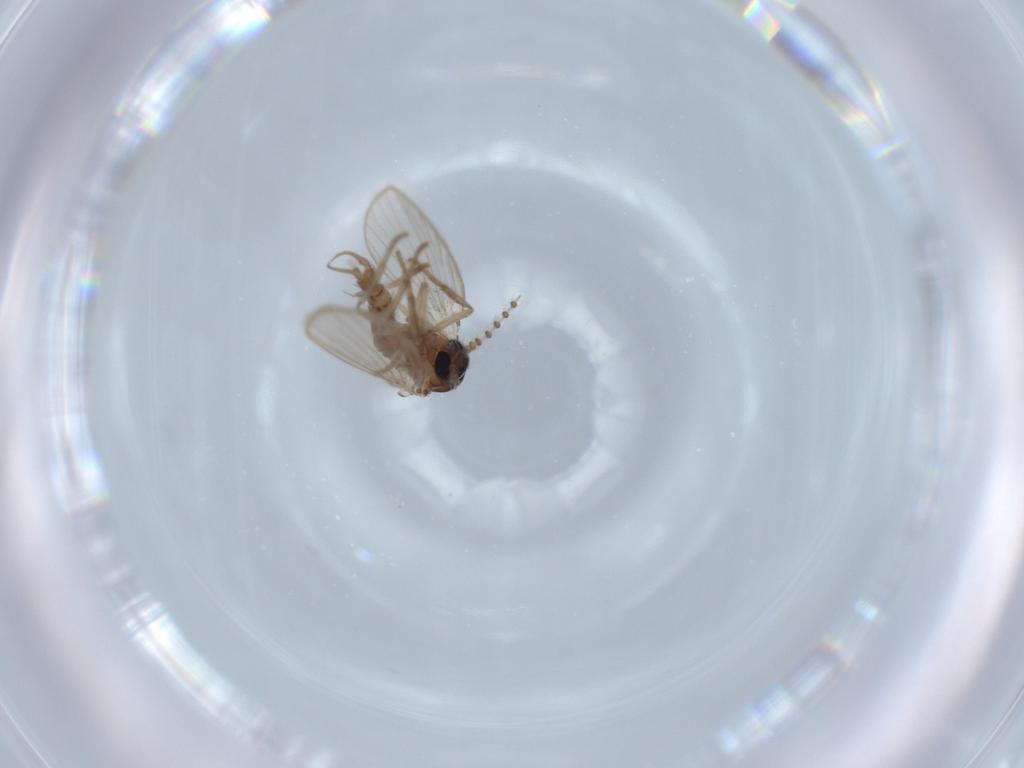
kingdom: Animalia
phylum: Arthropoda
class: Insecta
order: Diptera
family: Psychodidae
